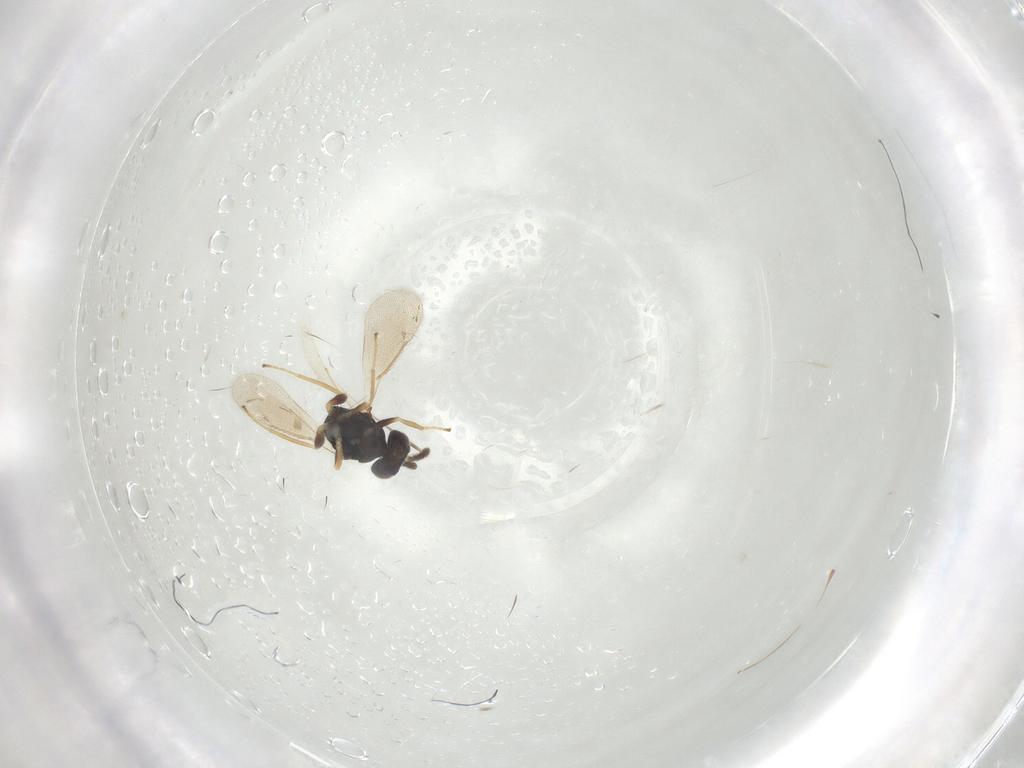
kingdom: Animalia
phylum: Arthropoda
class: Insecta
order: Hymenoptera
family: Eulophidae
